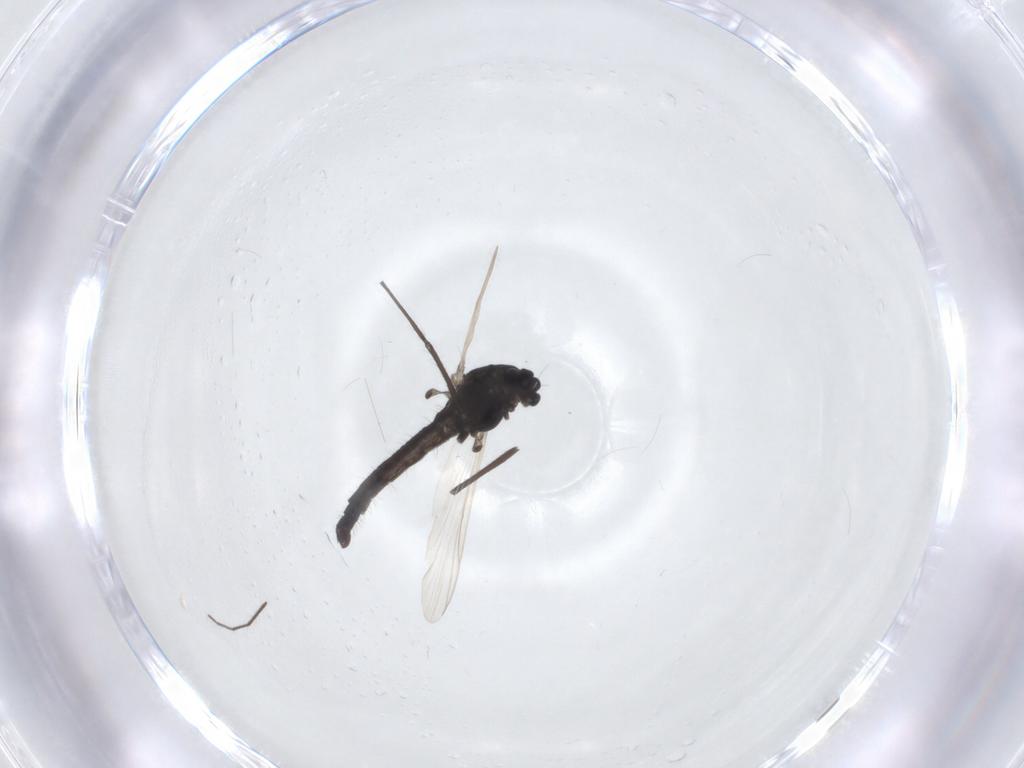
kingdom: Animalia
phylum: Arthropoda
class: Insecta
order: Diptera
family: Chironomidae
